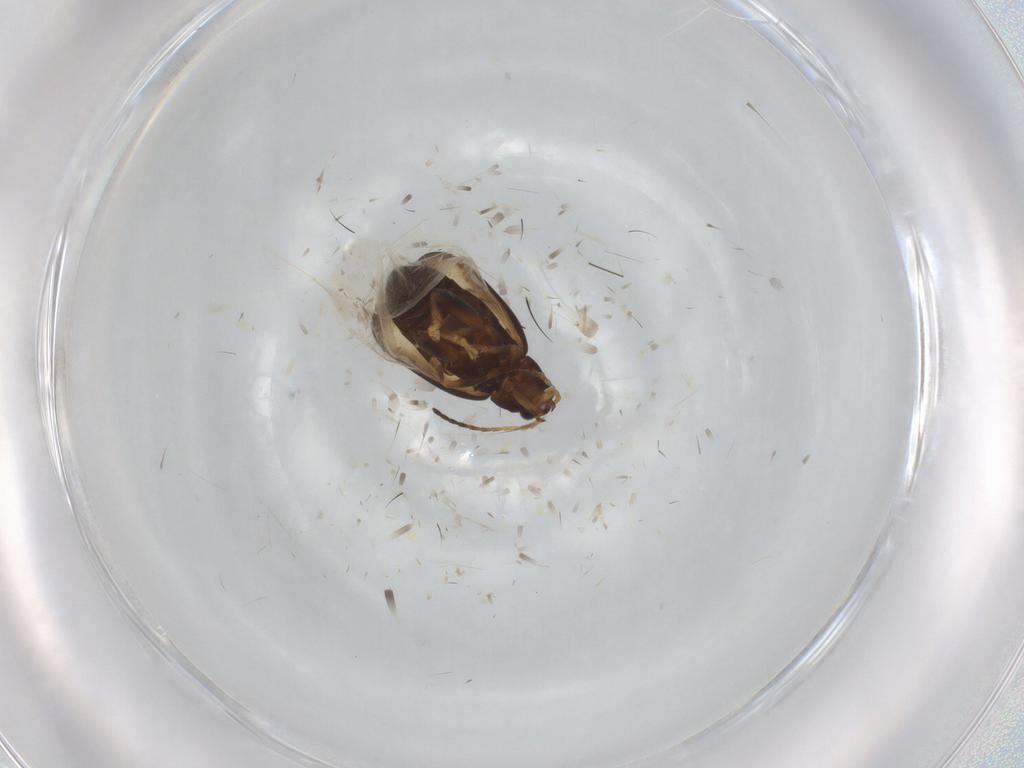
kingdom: Animalia
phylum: Arthropoda
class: Insecta
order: Coleoptera
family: Chrysomelidae
